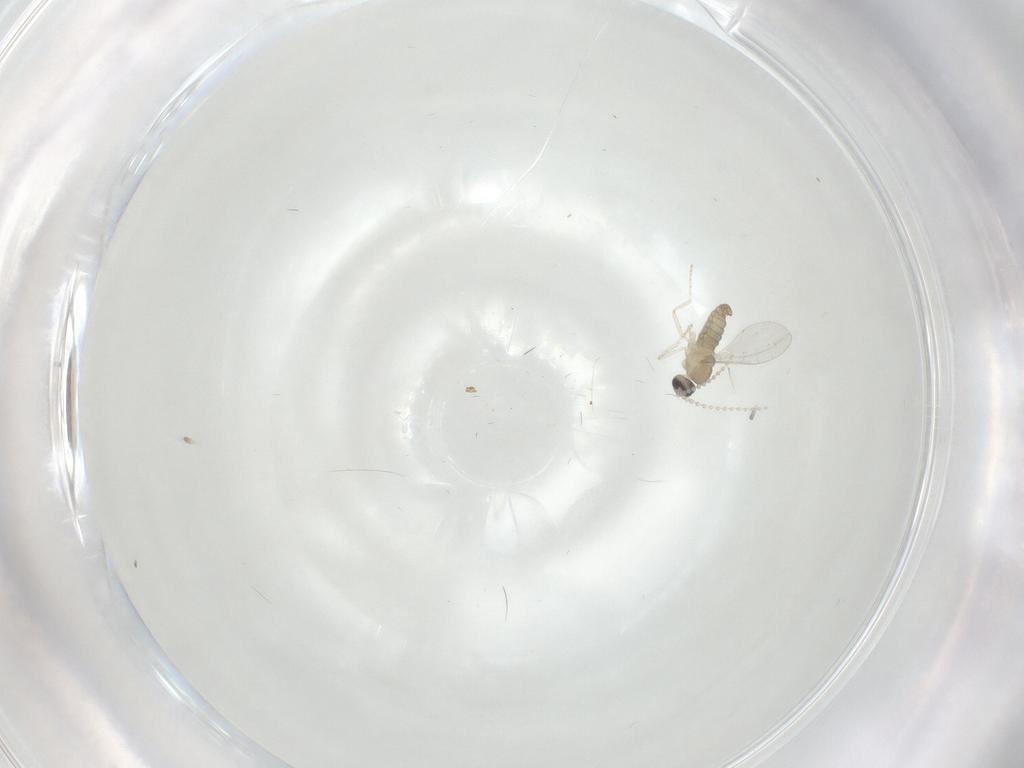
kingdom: Animalia
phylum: Arthropoda
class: Insecta
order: Diptera
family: Cecidomyiidae
